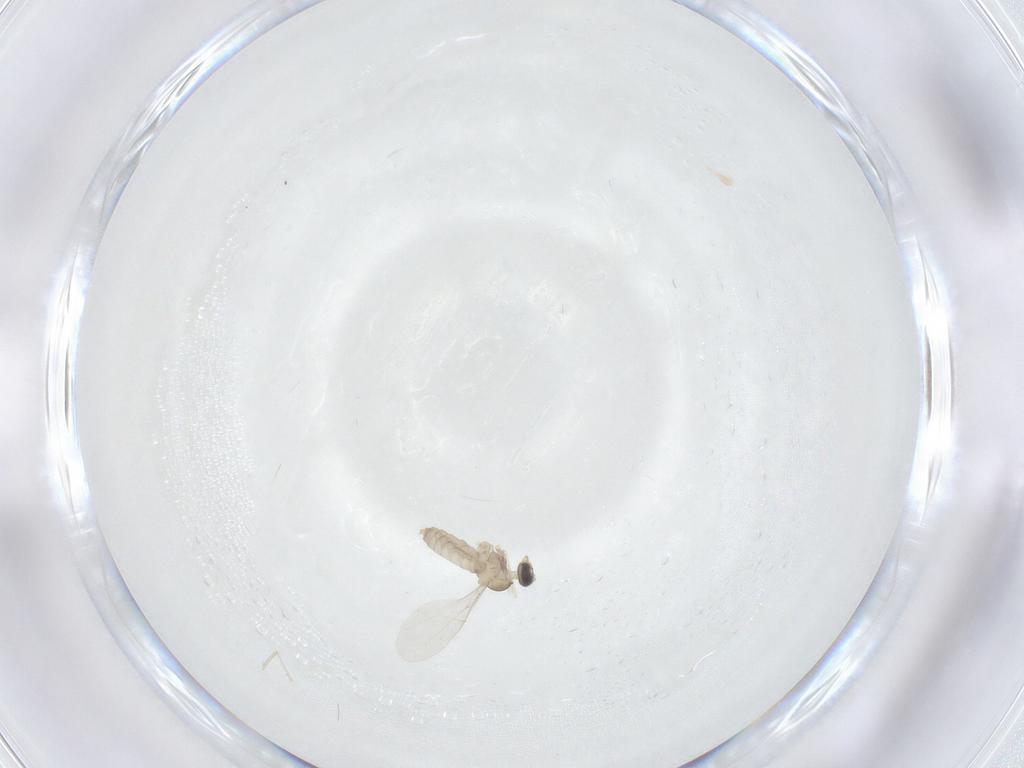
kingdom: Animalia
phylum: Arthropoda
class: Insecta
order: Diptera
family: Cecidomyiidae
